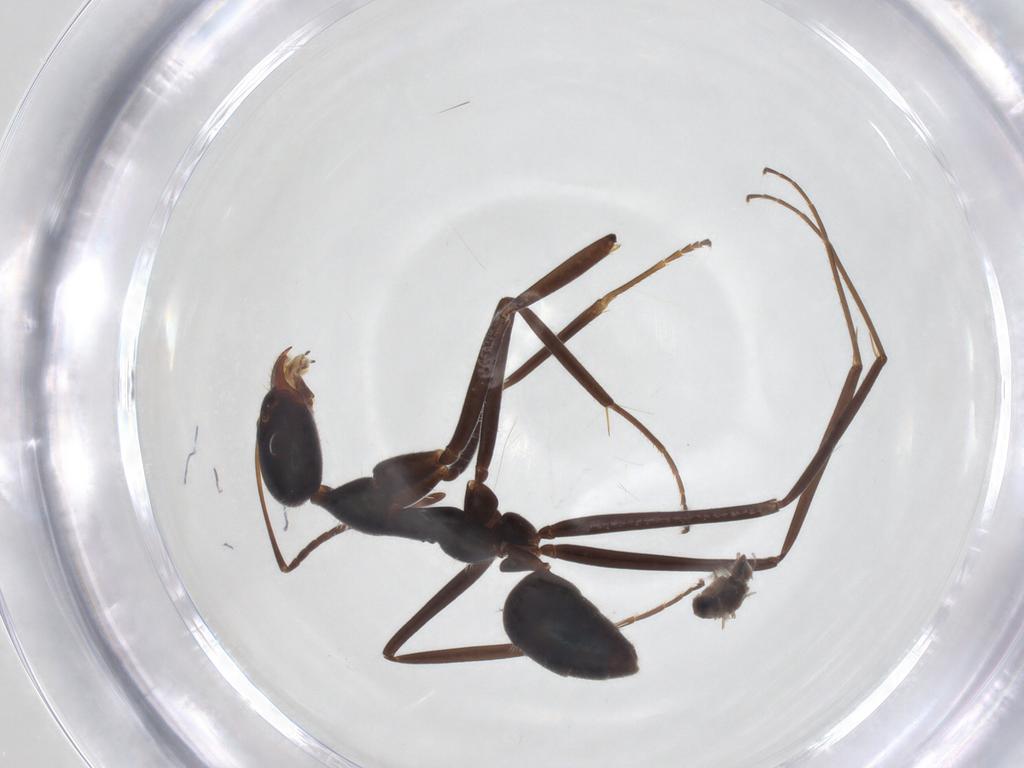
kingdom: Animalia
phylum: Arthropoda
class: Insecta
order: Hymenoptera
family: Formicidae
